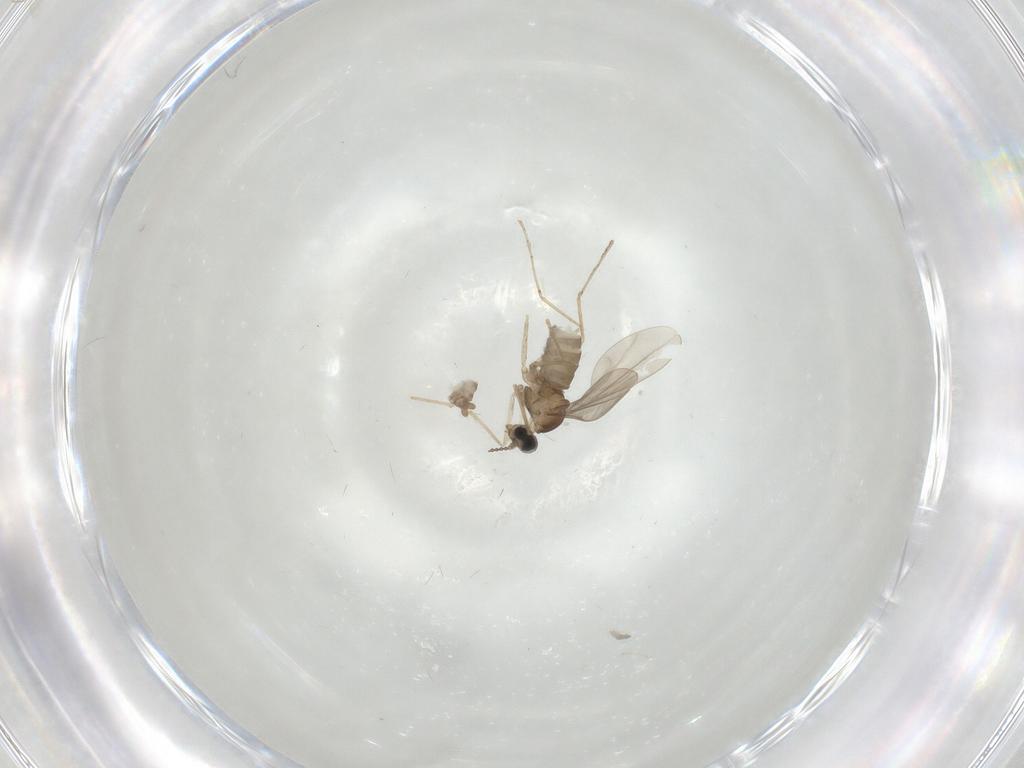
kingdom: Animalia
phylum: Arthropoda
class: Insecta
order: Diptera
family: Cecidomyiidae
